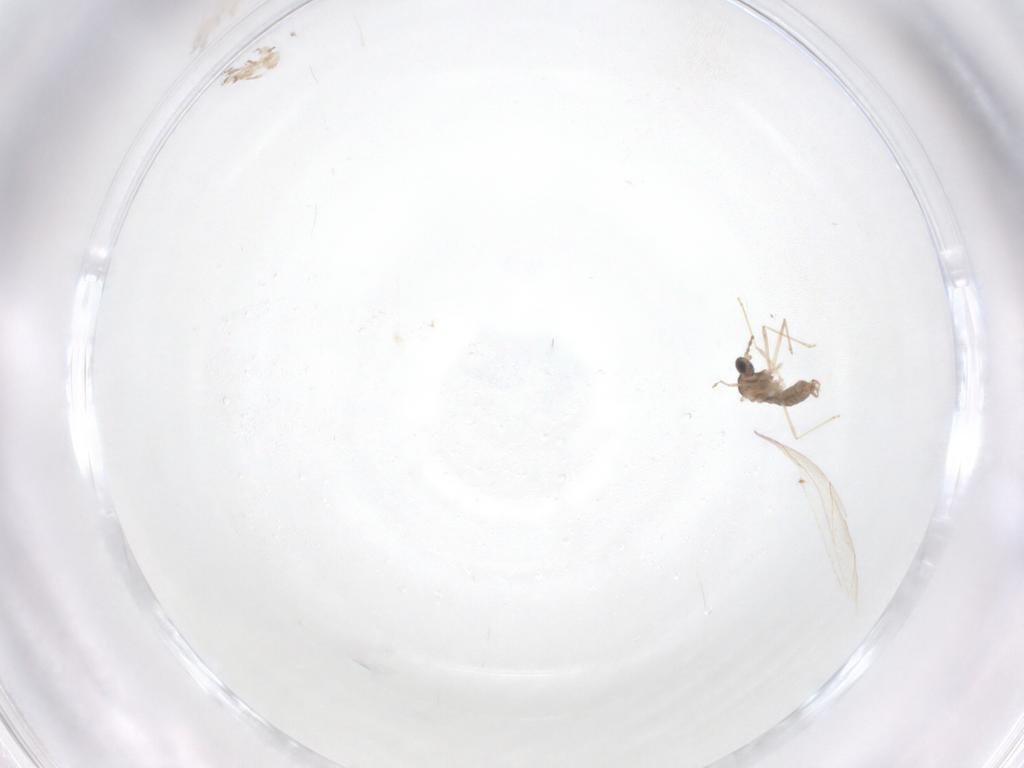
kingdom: Animalia
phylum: Arthropoda
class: Insecta
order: Diptera
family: Cecidomyiidae
